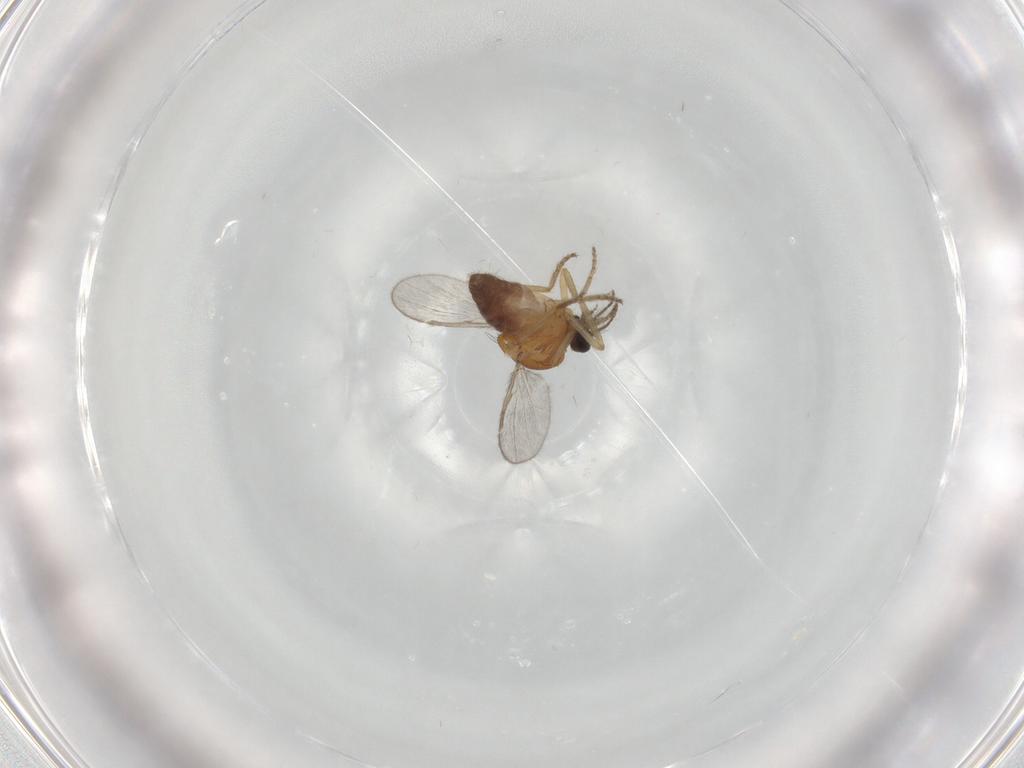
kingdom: Animalia
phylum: Arthropoda
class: Insecta
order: Diptera
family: Ceratopogonidae
